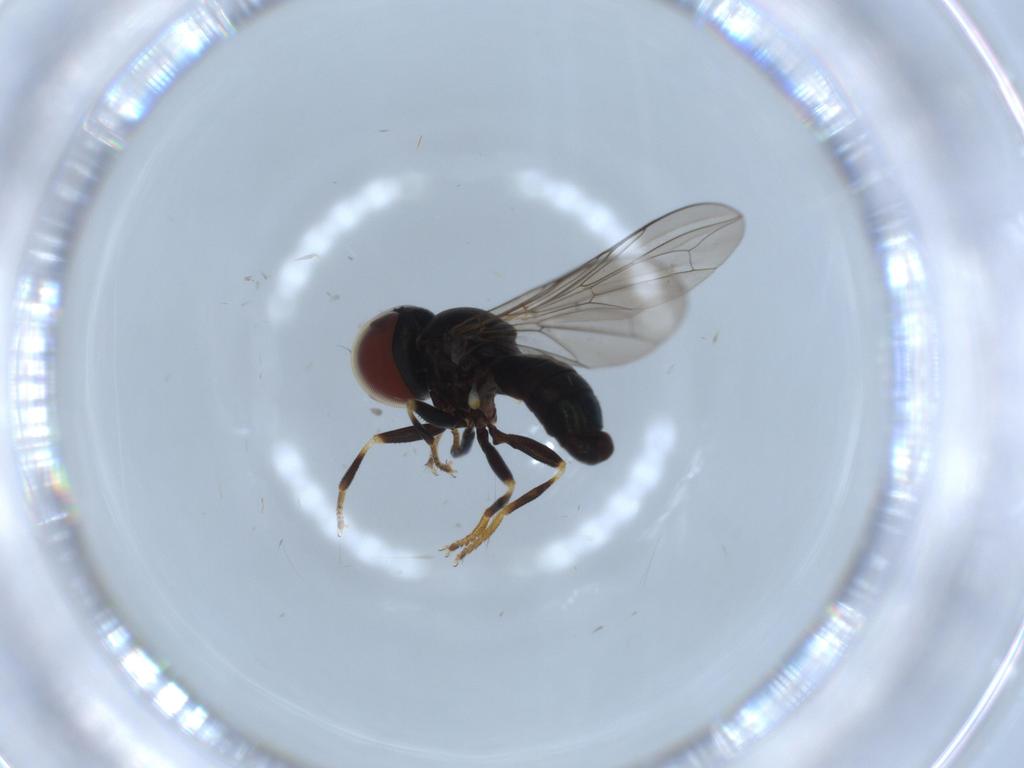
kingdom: Animalia
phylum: Arthropoda
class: Insecta
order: Diptera
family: Pipunculidae
